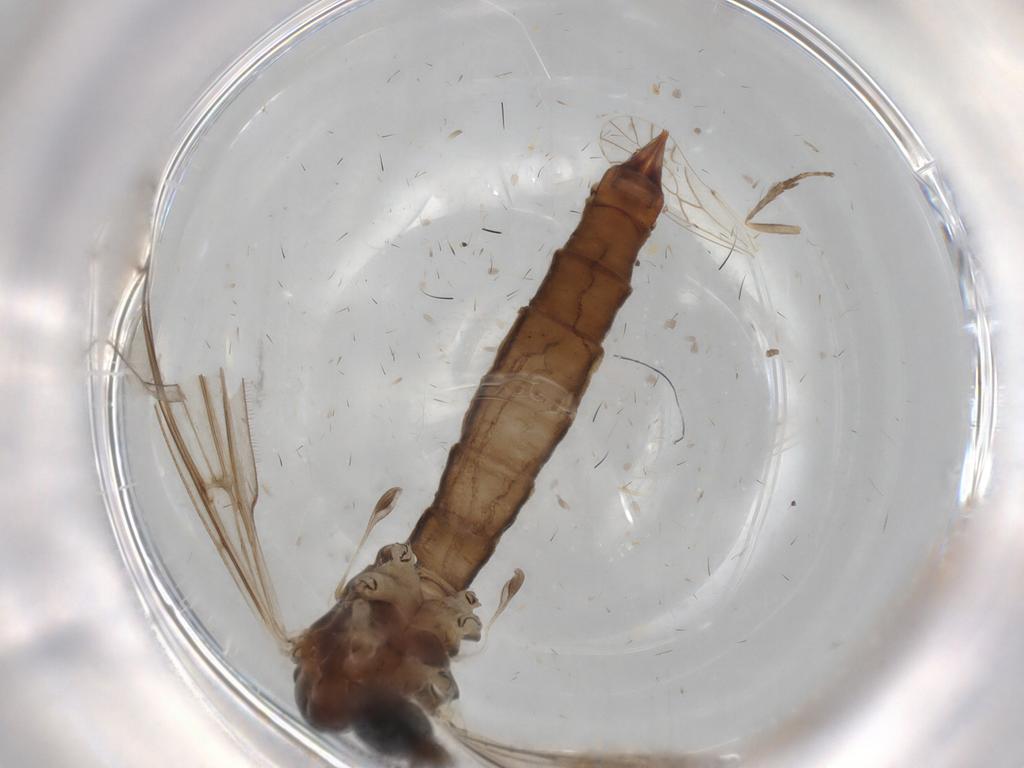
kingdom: Animalia
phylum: Arthropoda
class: Insecta
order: Diptera
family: Limoniidae
